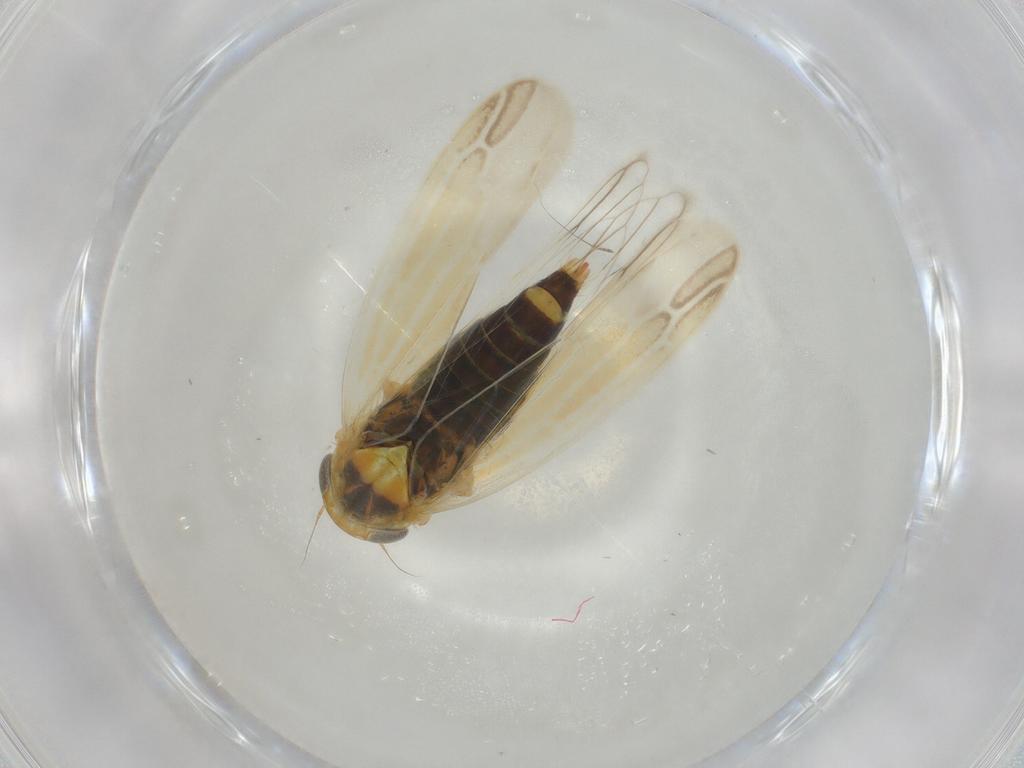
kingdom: Animalia
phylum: Arthropoda
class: Insecta
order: Hemiptera
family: Cicadellidae
